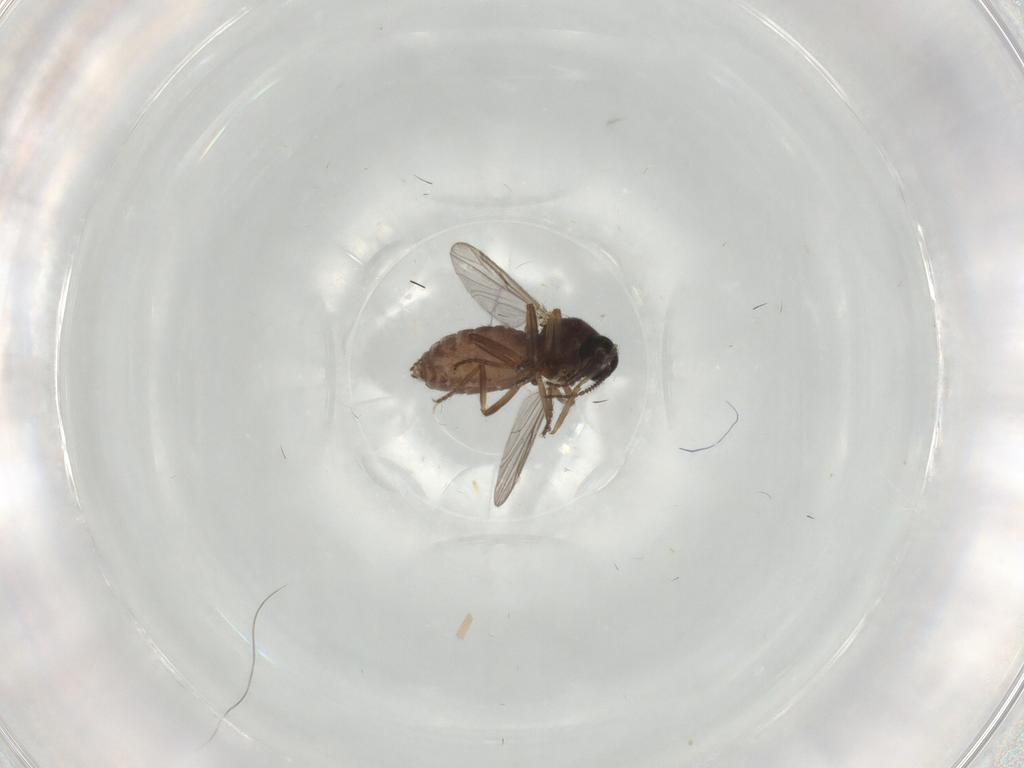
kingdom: Animalia
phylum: Arthropoda
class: Insecta
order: Diptera
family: Ceratopogonidae
